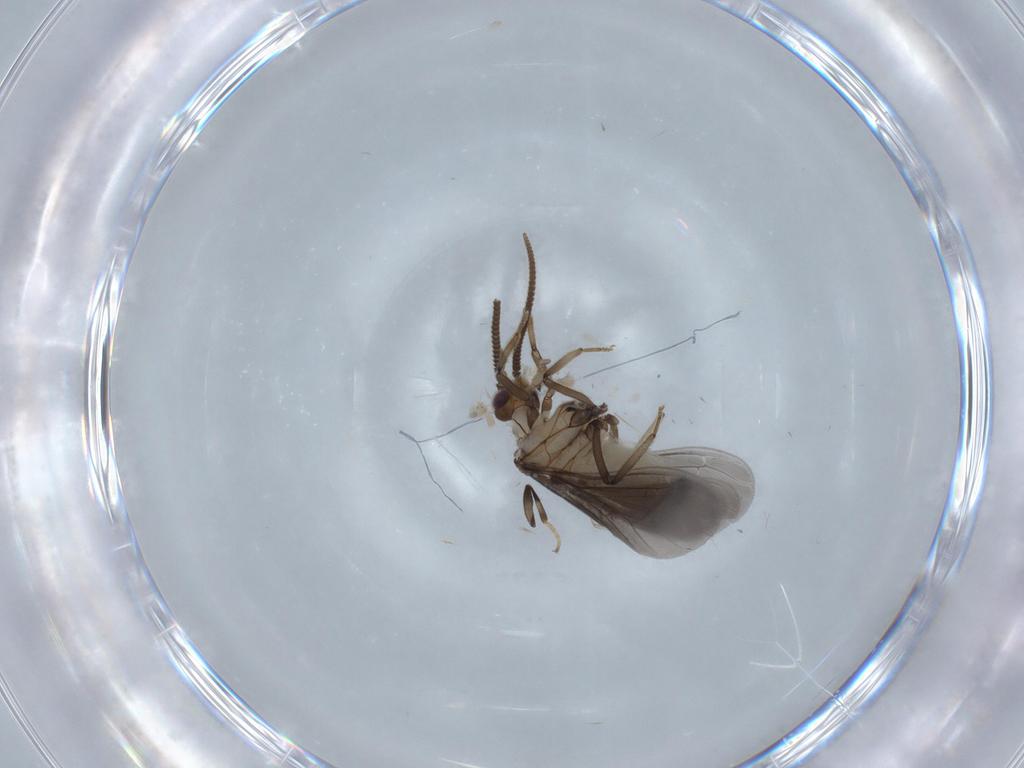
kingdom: Animalia
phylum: Arthropoda
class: Insecta
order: Neuroptera
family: Coniopterygidae
